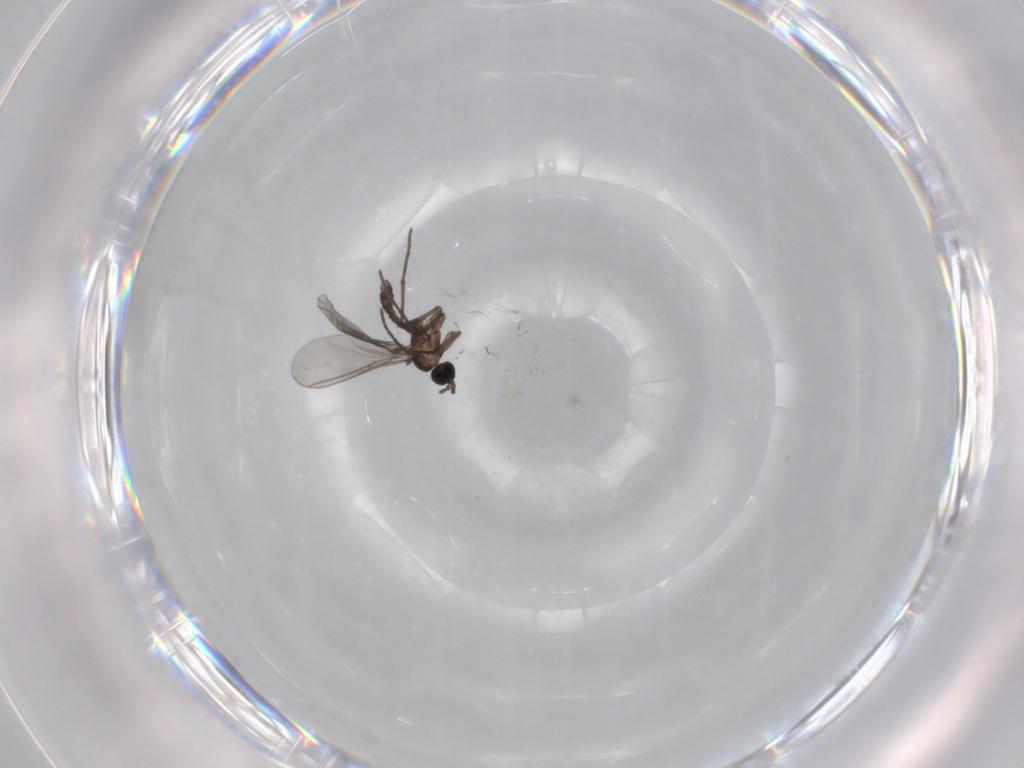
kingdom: Animalia
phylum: Arthropoda
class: Insecta
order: Diptera
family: Sciaridae
